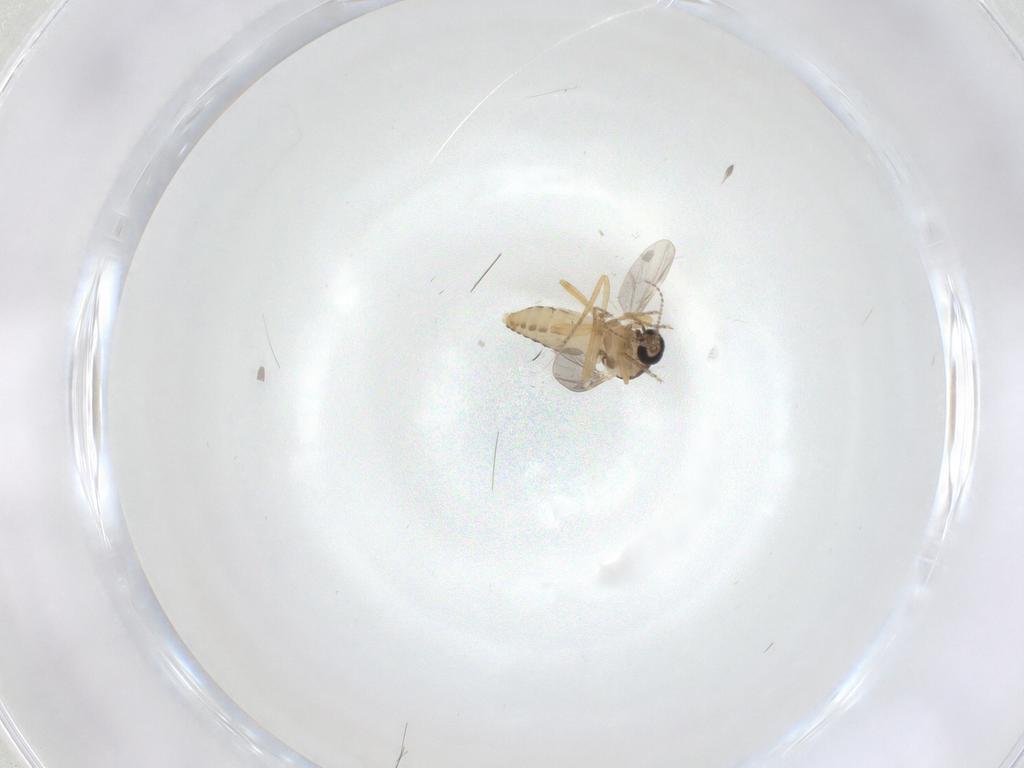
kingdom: Animalia
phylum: Arthropoda
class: Insecta
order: Diptera
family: Ceratopogonidae
